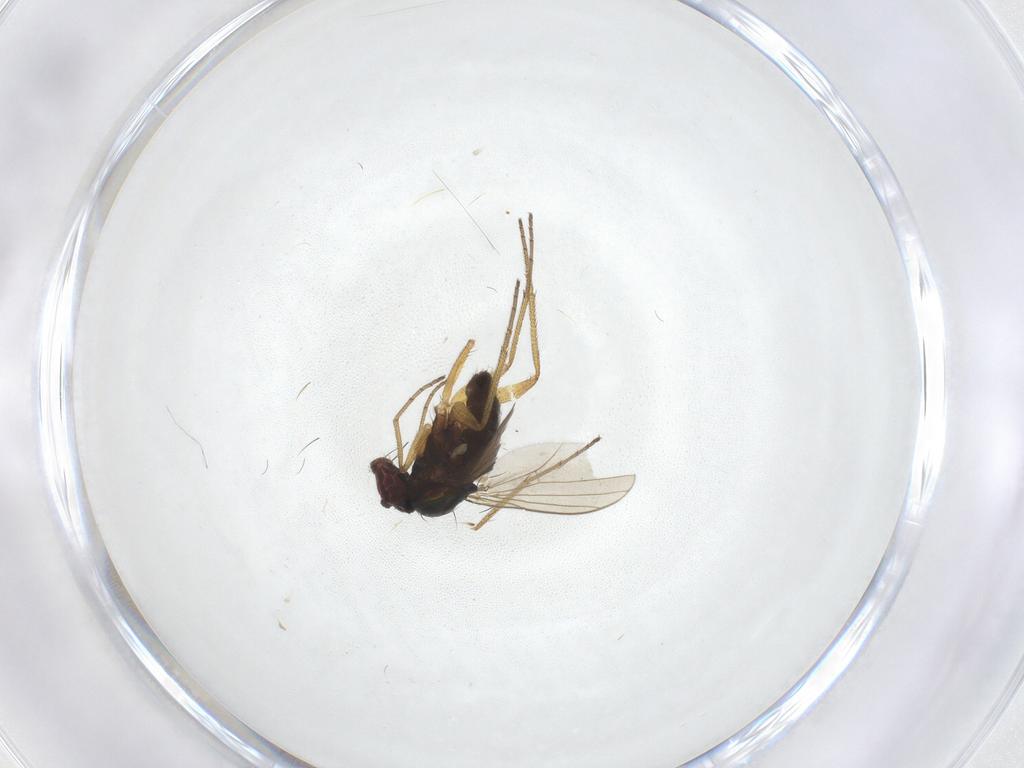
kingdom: Animalia
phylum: Arthropoda
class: Insecta
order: Diptera
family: Dolichopodidae
